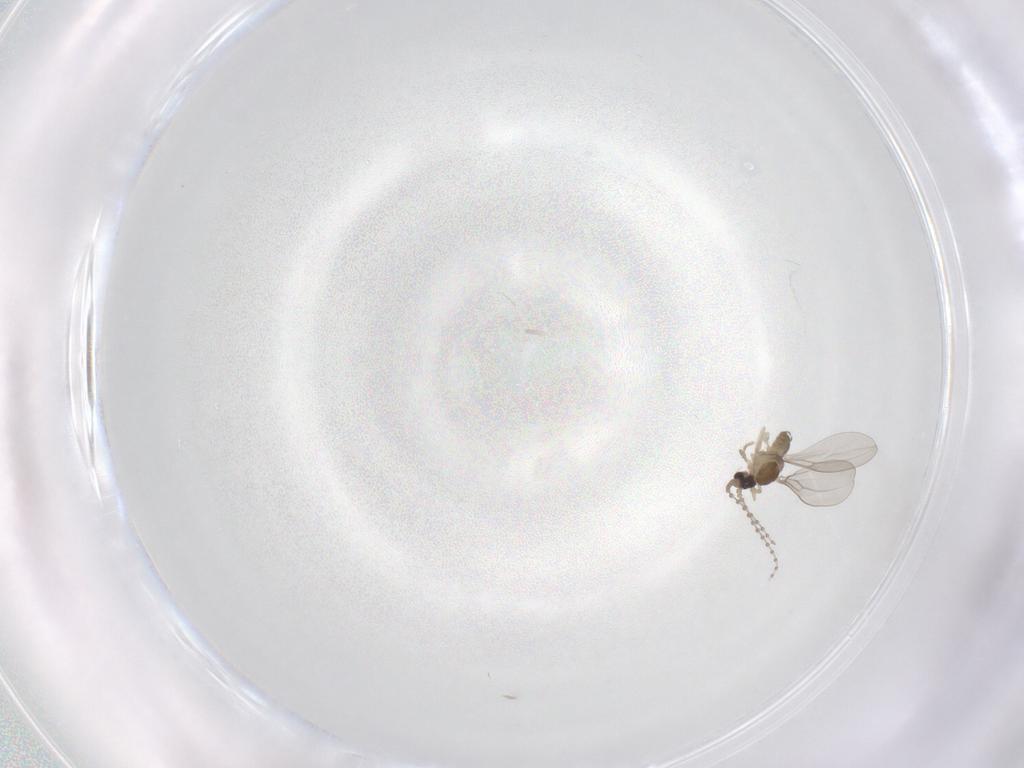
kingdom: Animalia
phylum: Arthropoda
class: Insecta
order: Diptera
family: Cecidomyiidae
